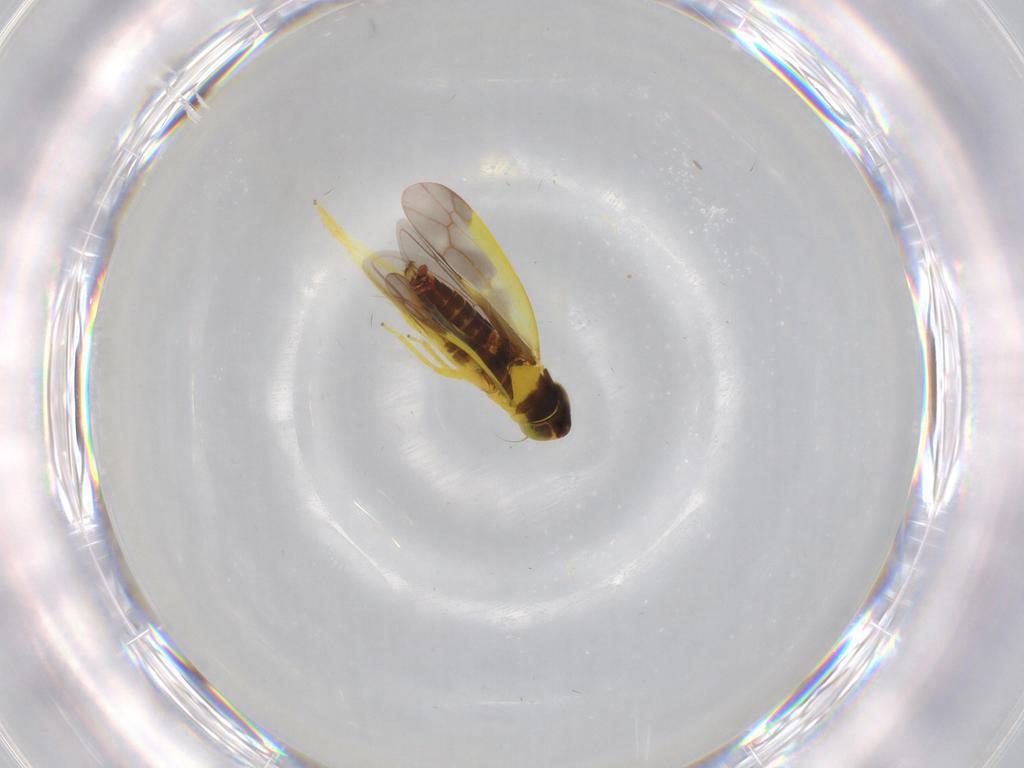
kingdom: Animalia
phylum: Arthropoda
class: Insecta
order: Hemiptera
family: Cicadellidae
